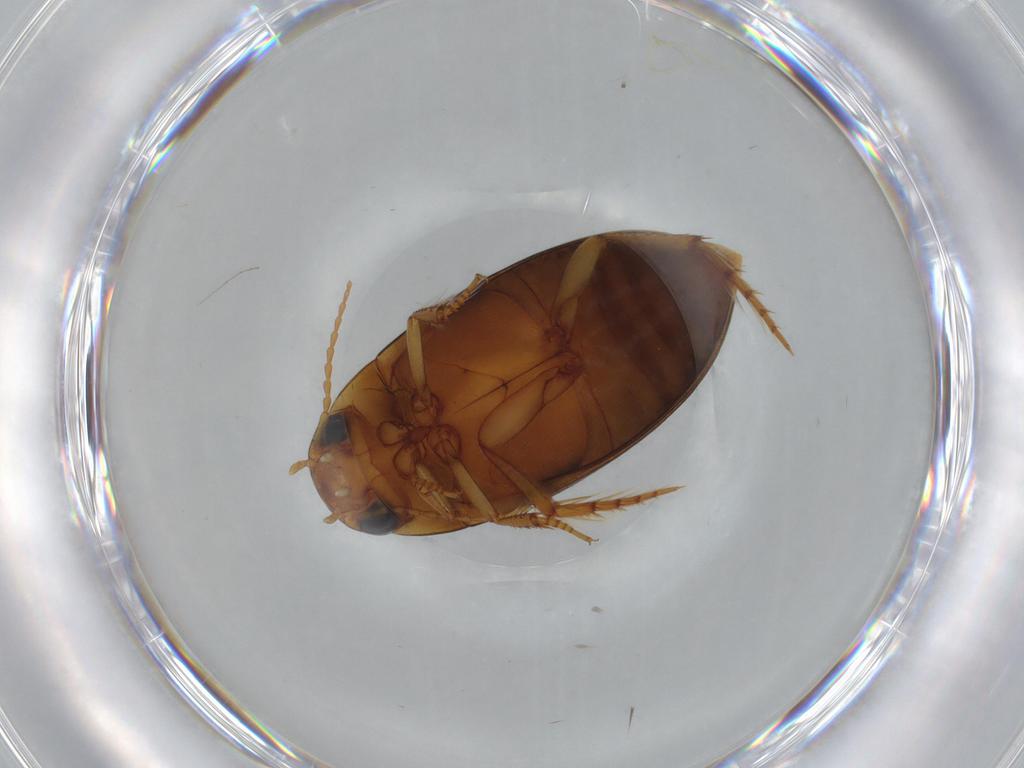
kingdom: Animalia
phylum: Arthropoda
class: Insecta
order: Coleoptera
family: Dytiscidae
